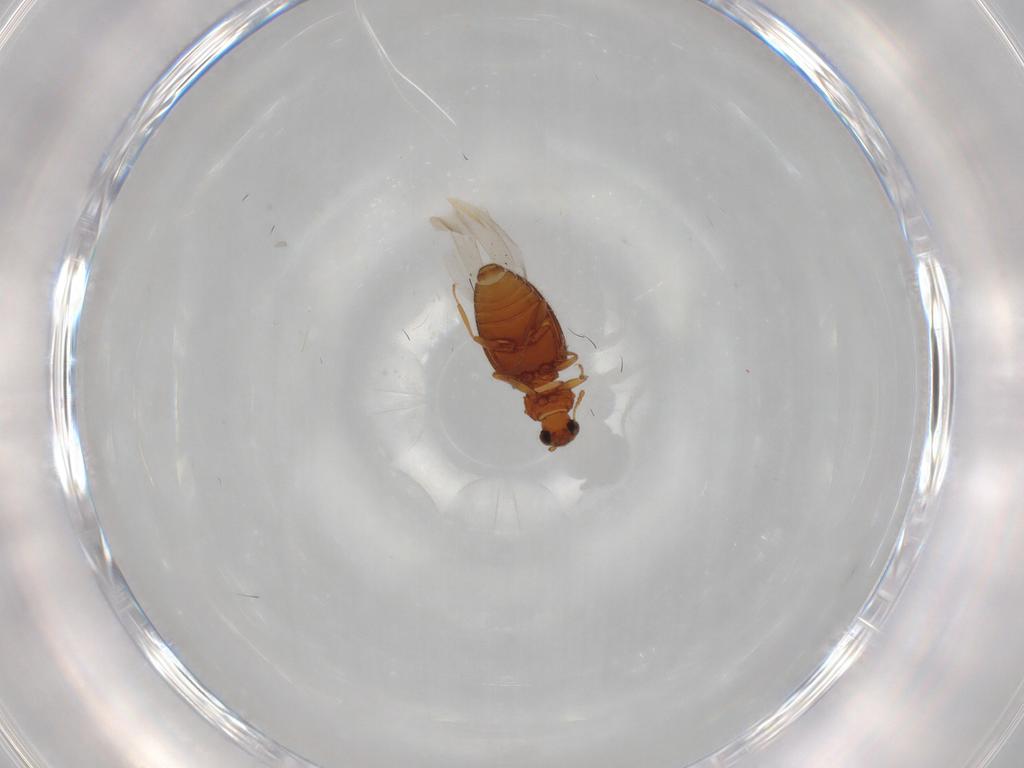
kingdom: Animalia
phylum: Arthropoda
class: Insecta
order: Coleoptera
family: Latridiidae
